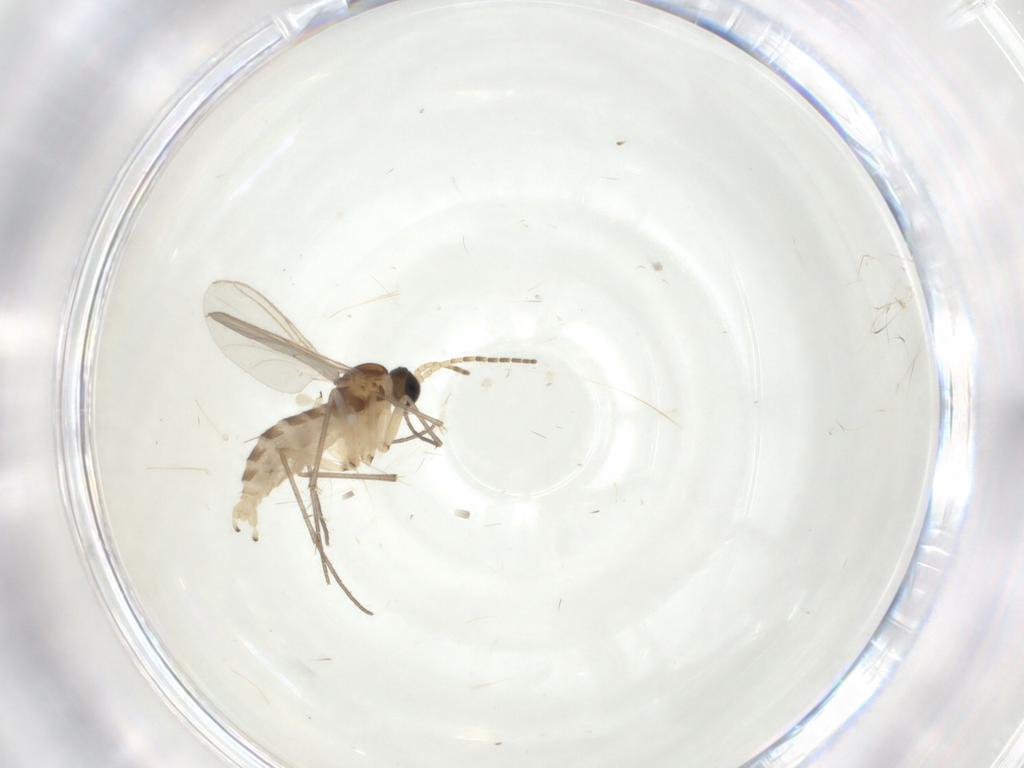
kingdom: Animalia
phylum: Arthropoda
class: Insecta
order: Diptera
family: Sciaridae
